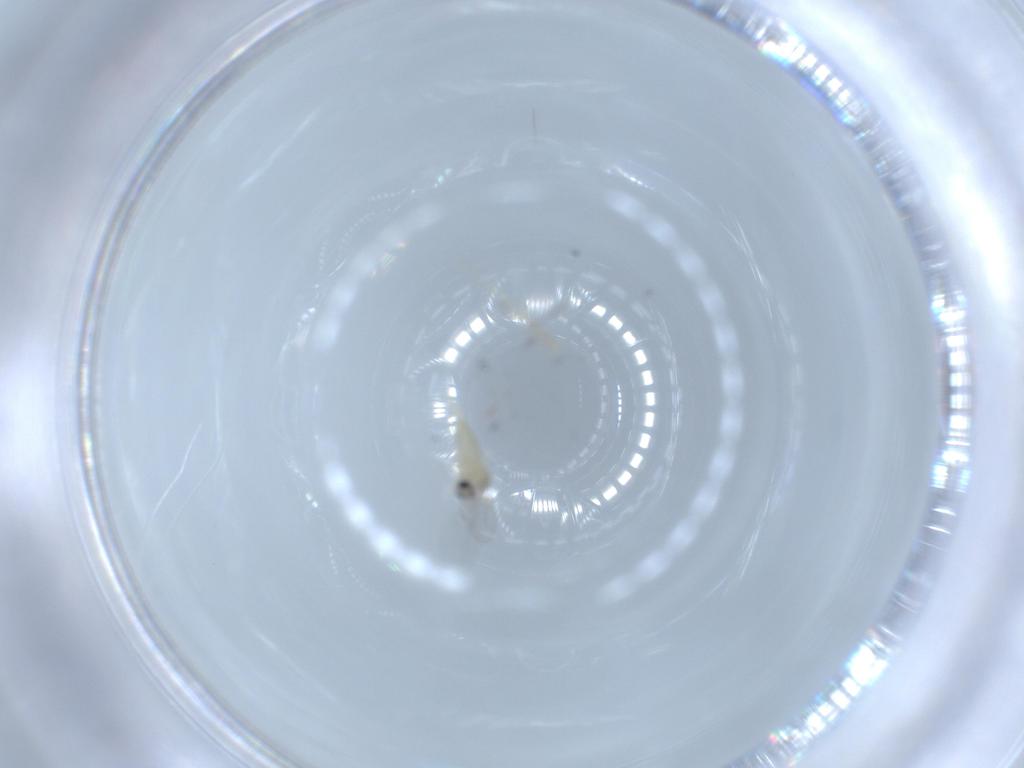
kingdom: Animalia
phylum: Arthropoda
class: Insecta
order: Diptera
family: Cecidomyiidae
